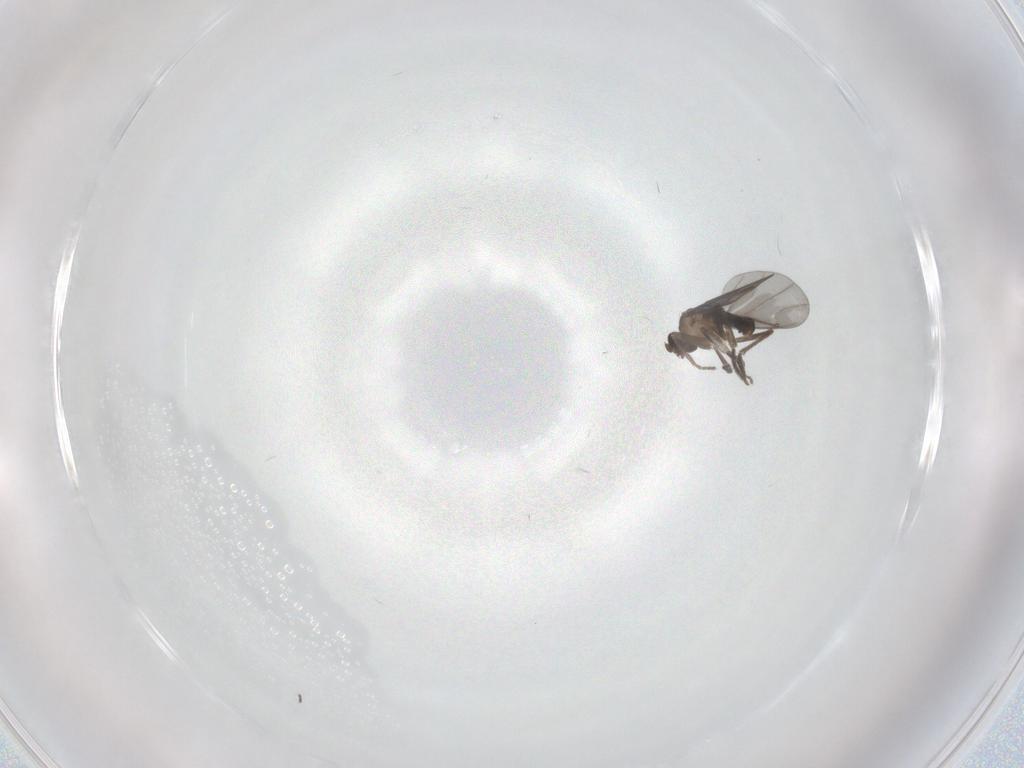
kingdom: Animalia
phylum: Arthropoda
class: Insecta
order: Diptera
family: Phoridae
